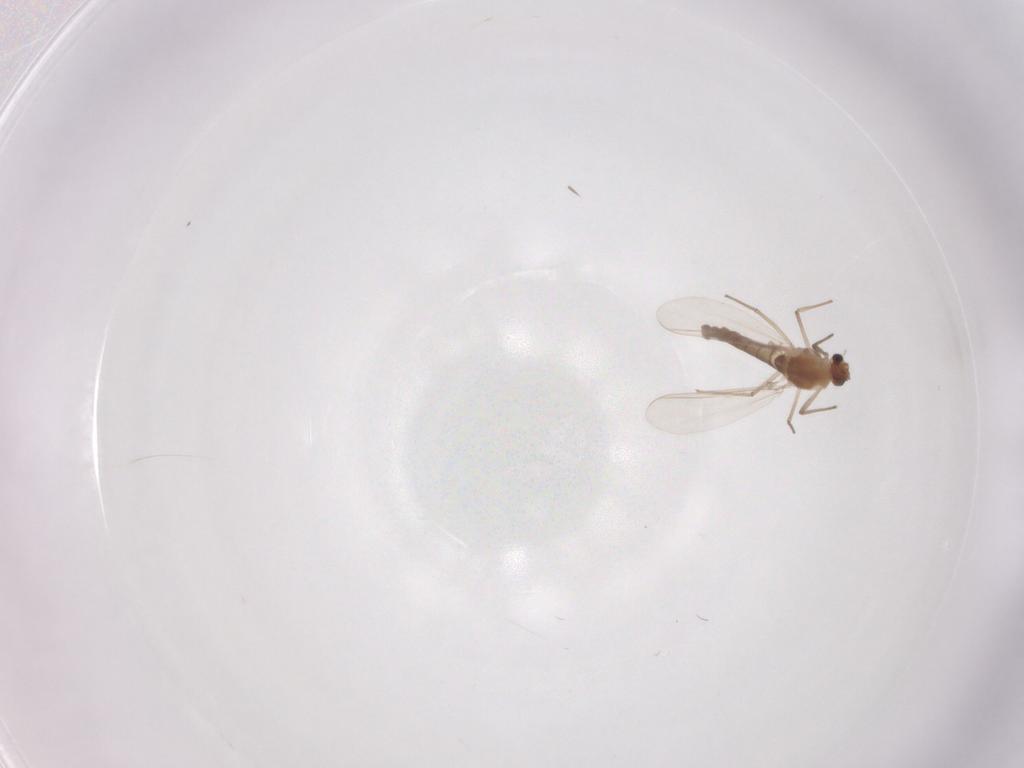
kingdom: Animalia
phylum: Arthropoda
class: Insecta
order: Diptera
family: Chironomidae
